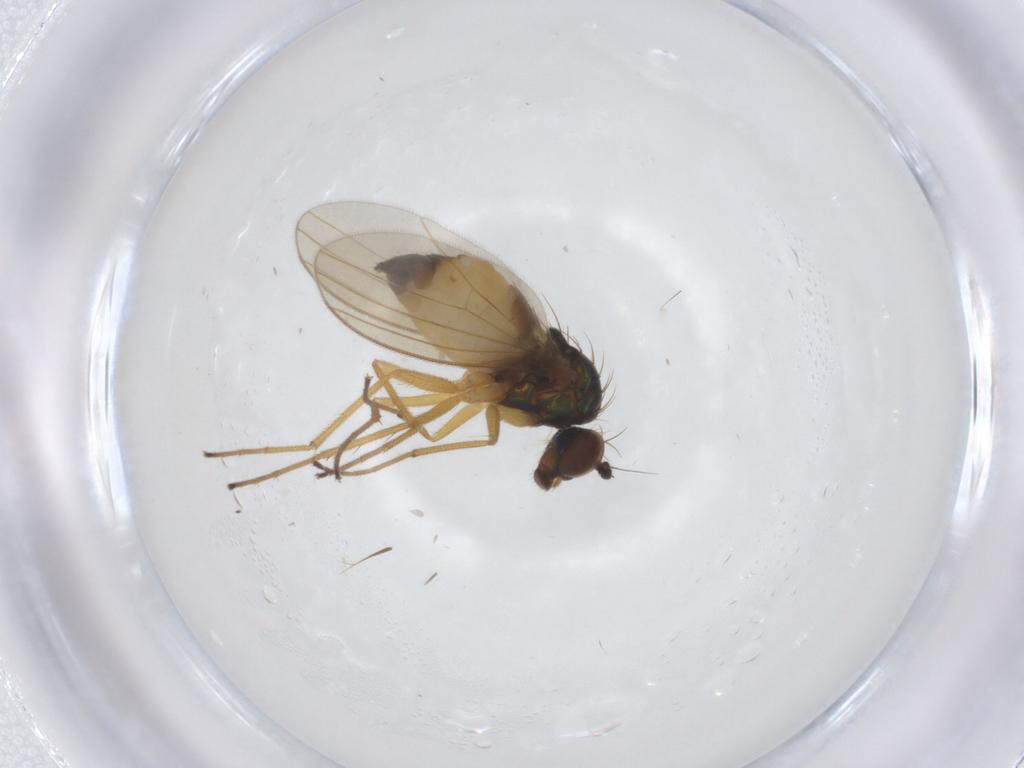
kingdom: Animalia
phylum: Arthropoda
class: Insecta
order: Diptera
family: Dolichopodidae
